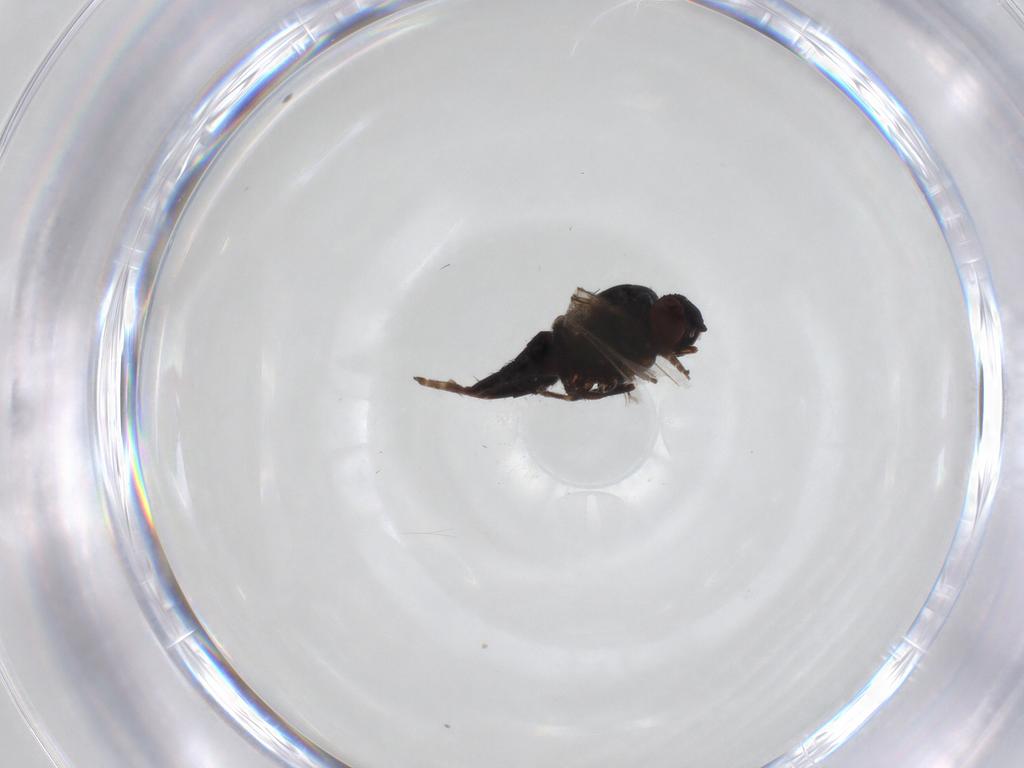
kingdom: Animalia
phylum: Arthropoda
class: Insecta
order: Diptera
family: Milichiidae
